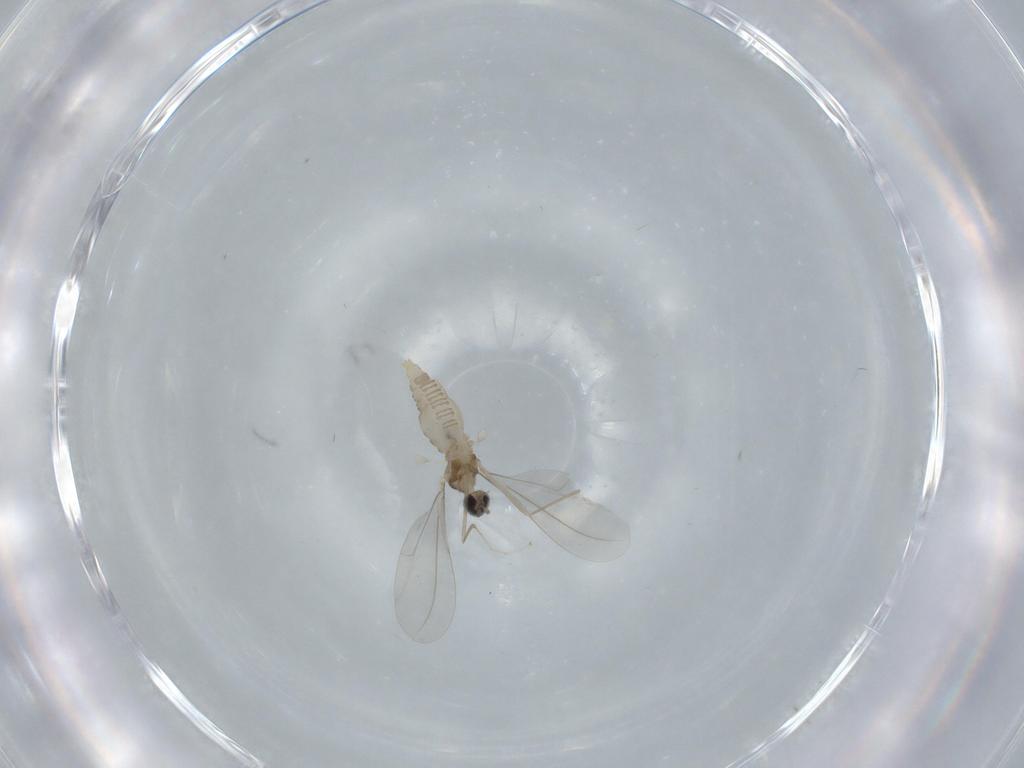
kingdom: Animalia
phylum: Arthropoda
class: Insecta
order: Diptera
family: Cecidomyiidae
